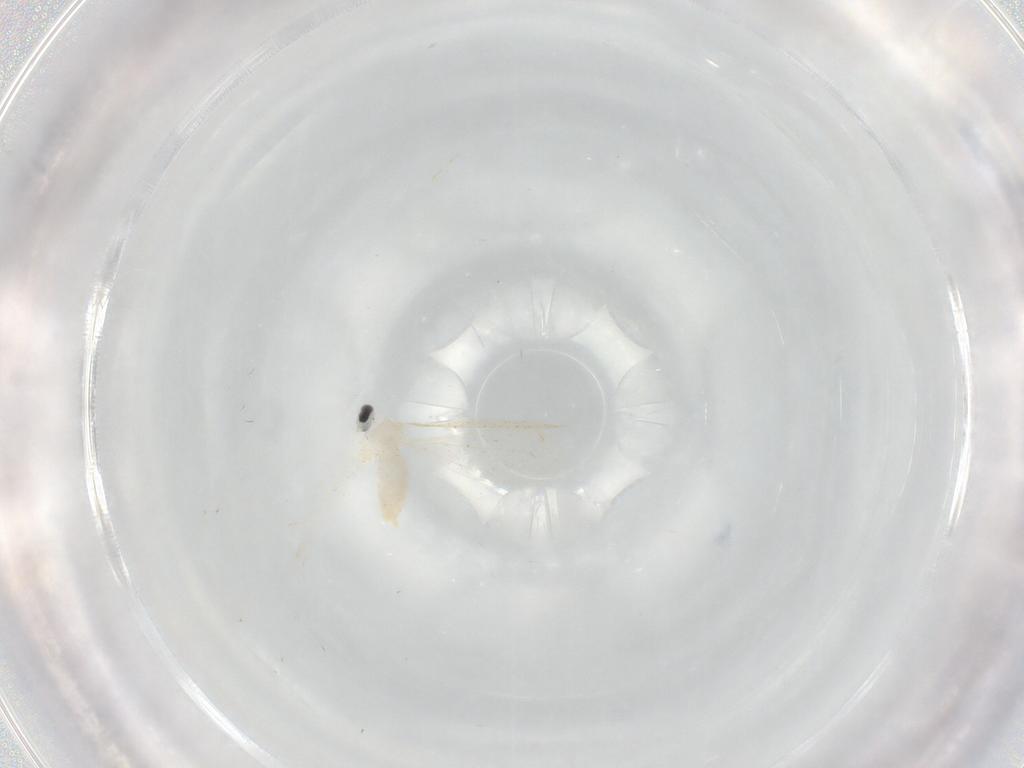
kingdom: Animalia
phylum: Arthropoda
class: Insecta
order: Diptera
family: Cecidomyiidae
